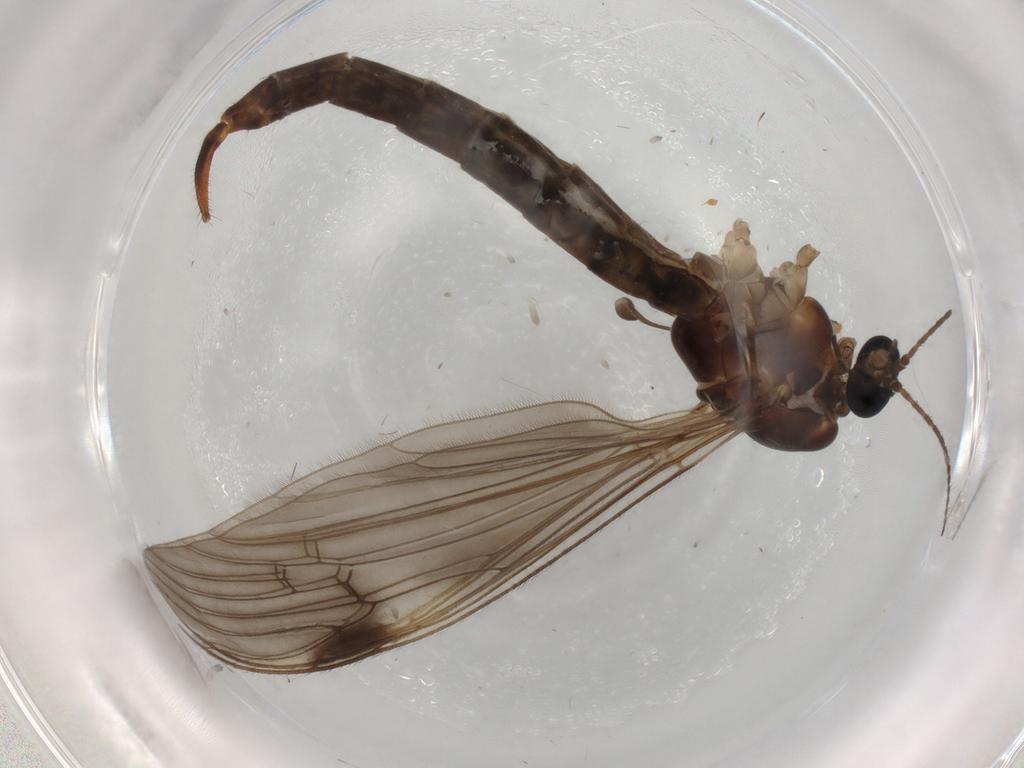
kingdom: Animalia
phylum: Arthropoda
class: Insecta
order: Diptera
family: Limoniidae
